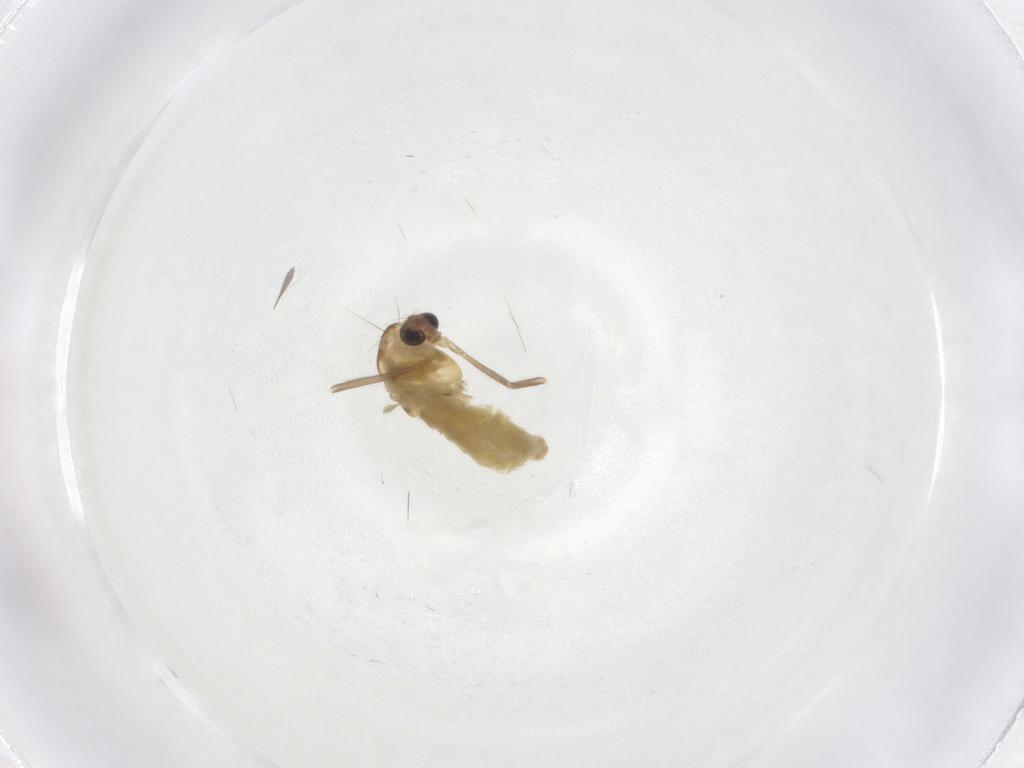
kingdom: Animalia
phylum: Arthropoda
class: Insecta
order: Diptera
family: Chironomidae
